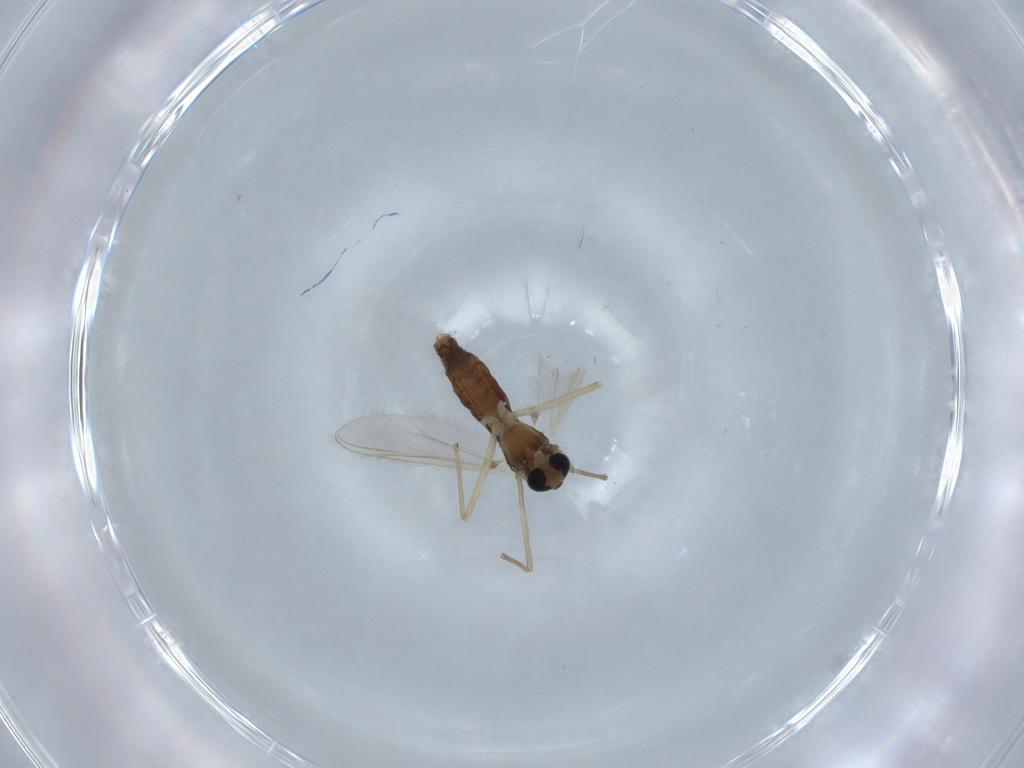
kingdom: Animalia
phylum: Arthropoda
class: Insecta
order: Diptera
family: Chironomidae
